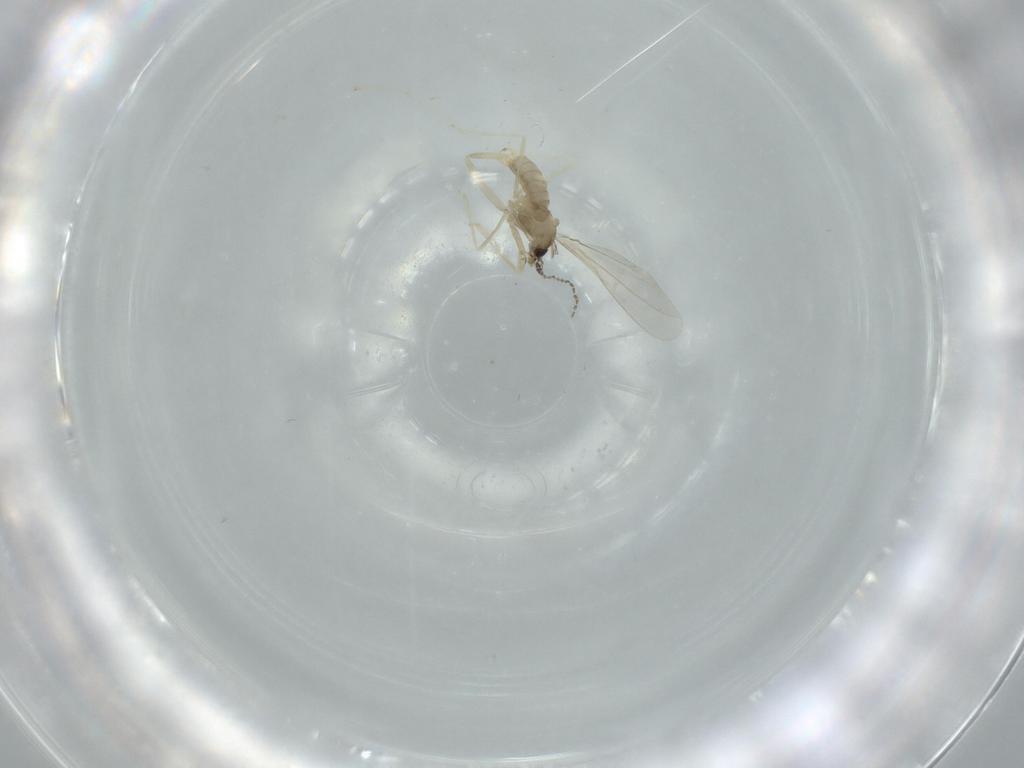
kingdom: Animalia
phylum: Arthropoda
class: Insecta
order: Diptera
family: Cecidomyiidae
